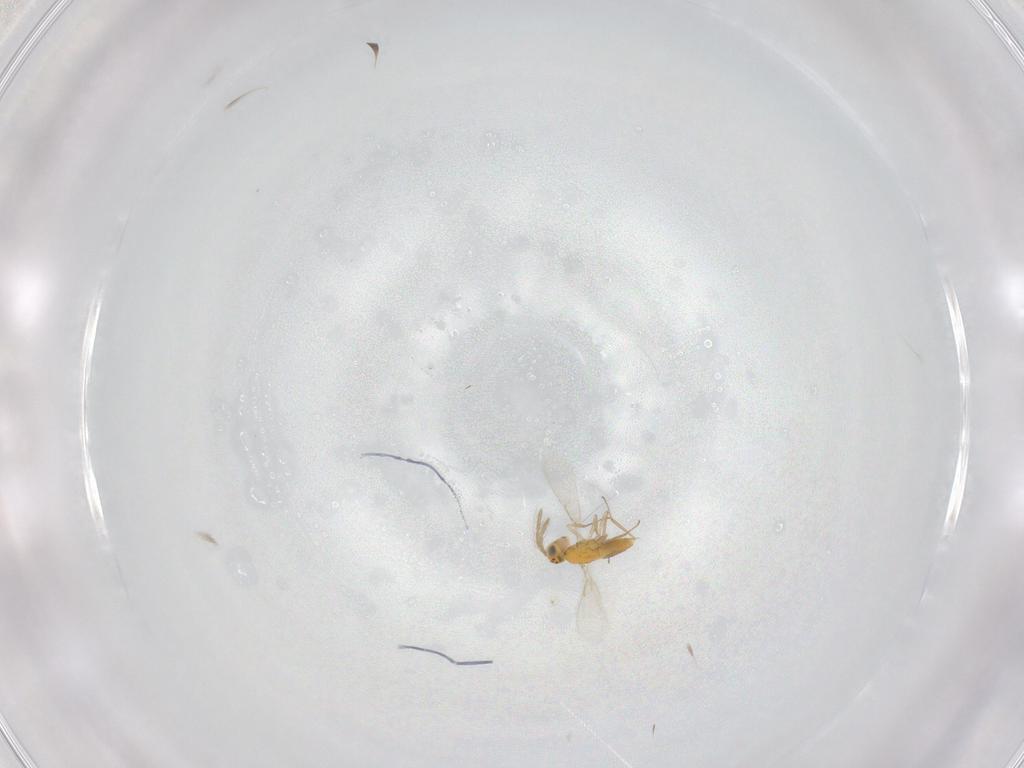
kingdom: Animalia
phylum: Arthropoda
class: Insecta
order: Hymenoptera
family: Aphelinidae
